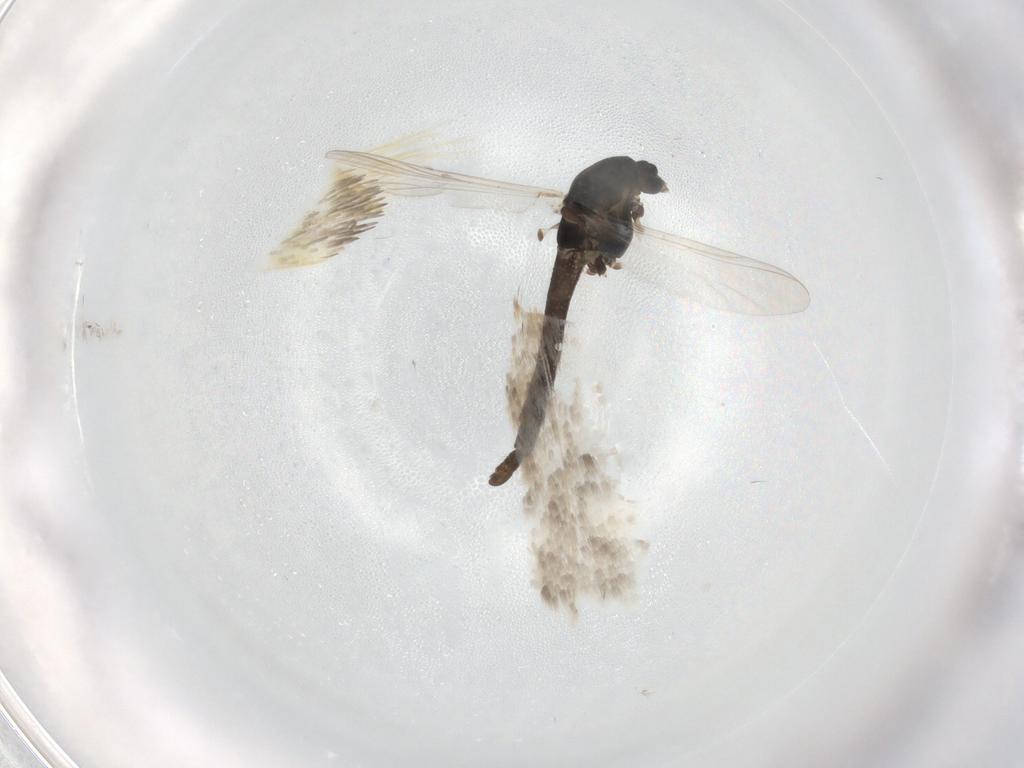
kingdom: Animalia
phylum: Arthropoda
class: Insecta
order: Diptera
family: Chironomidae
